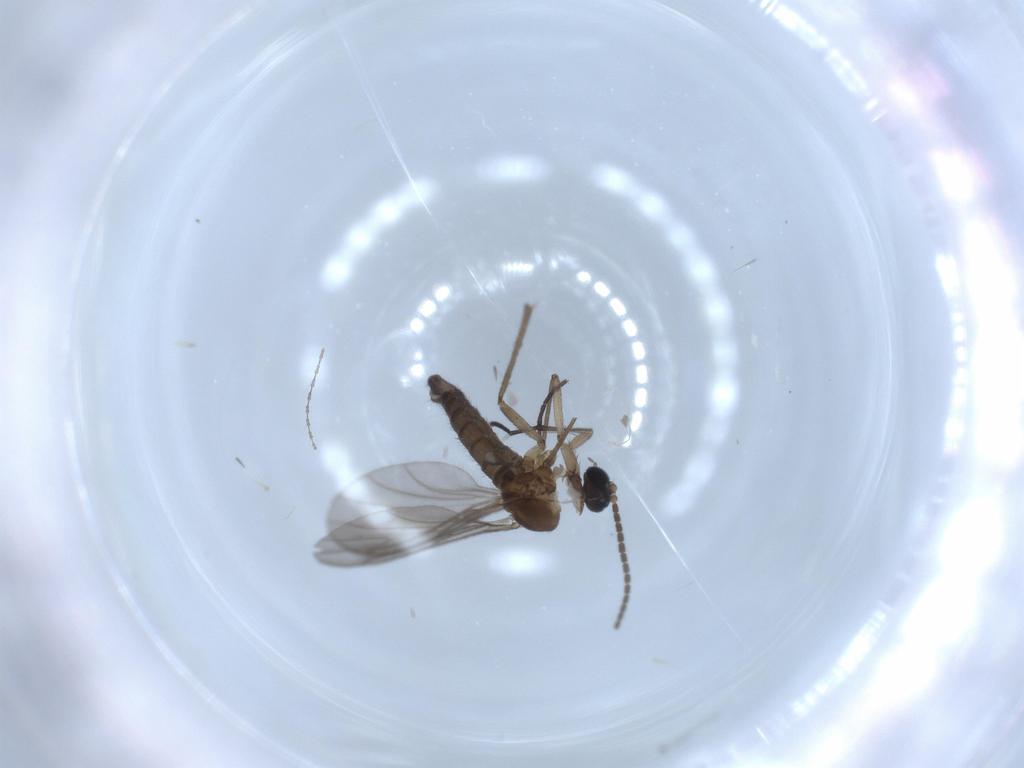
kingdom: Animalia
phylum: Arthropoda
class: Insecta
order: Diptera
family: Sciaridae
